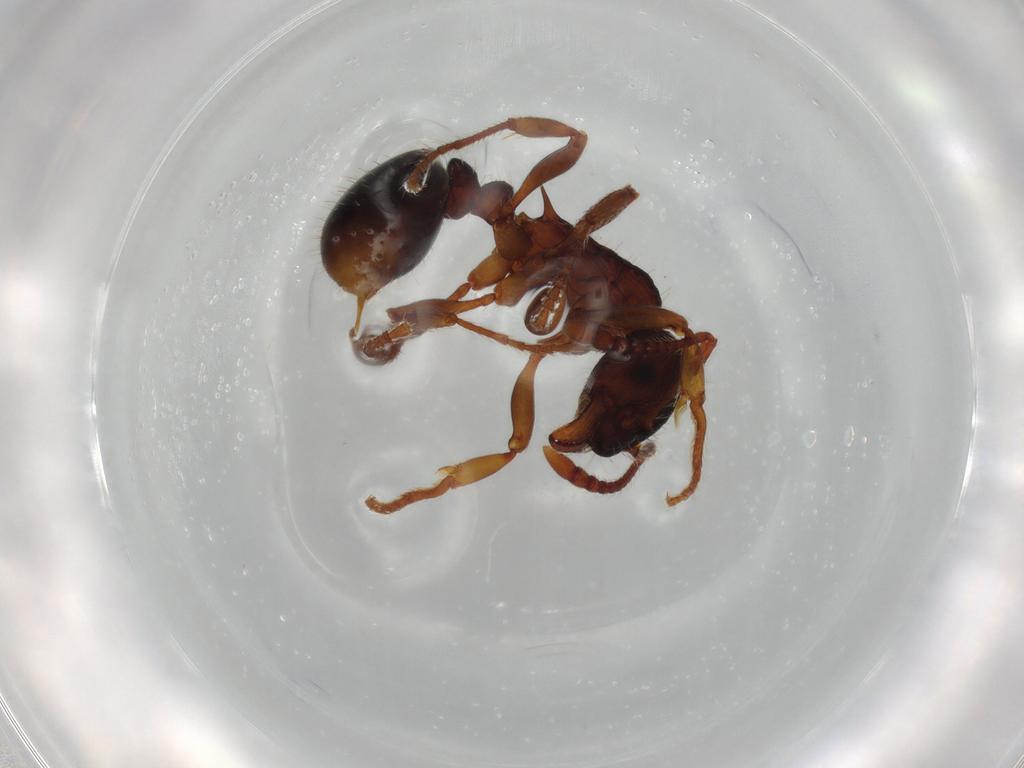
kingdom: Animalia
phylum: Arthropoda
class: Insecta
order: Hymenoptera
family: Formicidae
